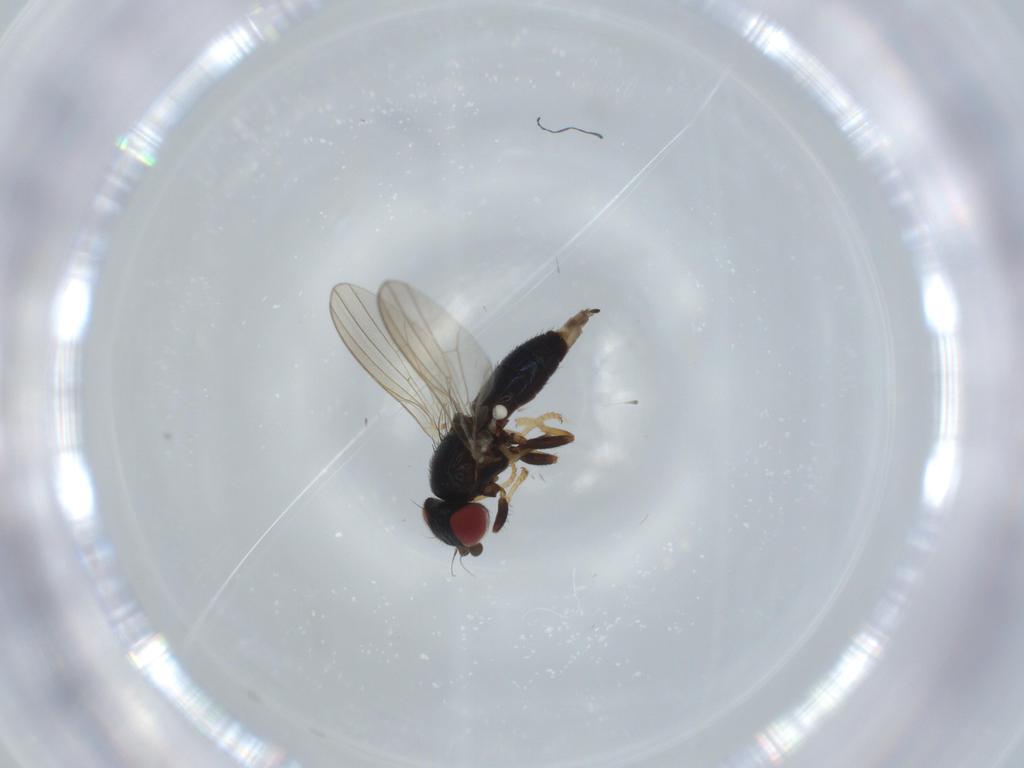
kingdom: Animalia
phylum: Arthropoda
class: Insecta
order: Diptera
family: Chamaemyiidae
